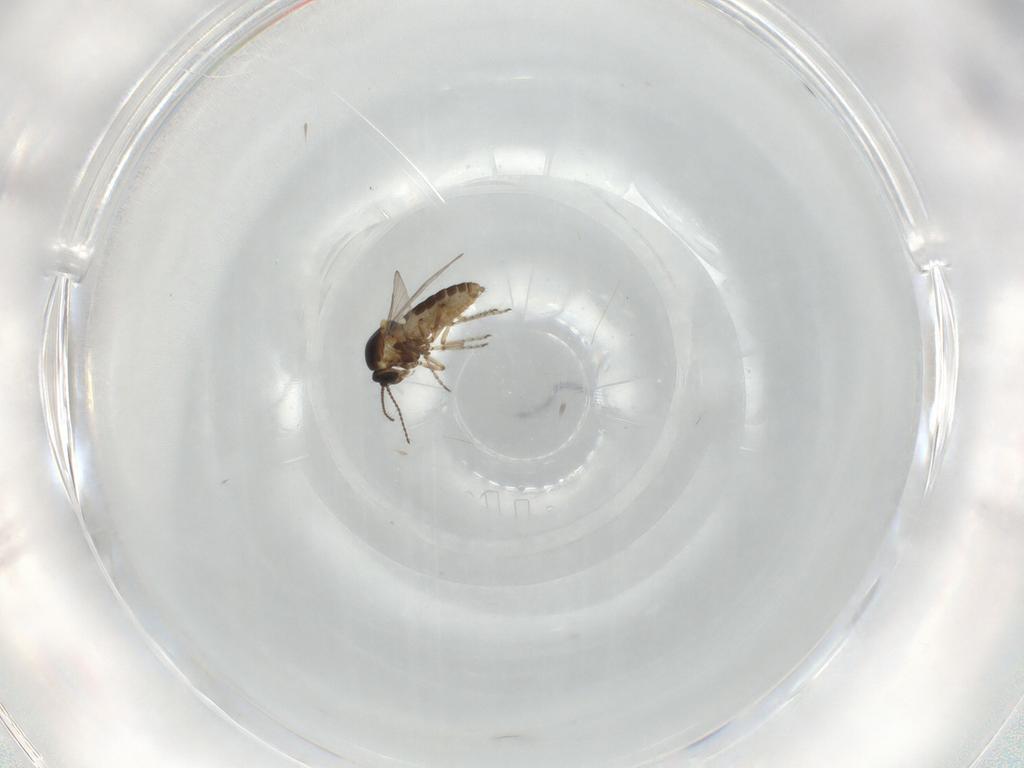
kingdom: Animalia
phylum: Arthropoda
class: Insecta
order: Diptera
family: Ceratopogonidae
